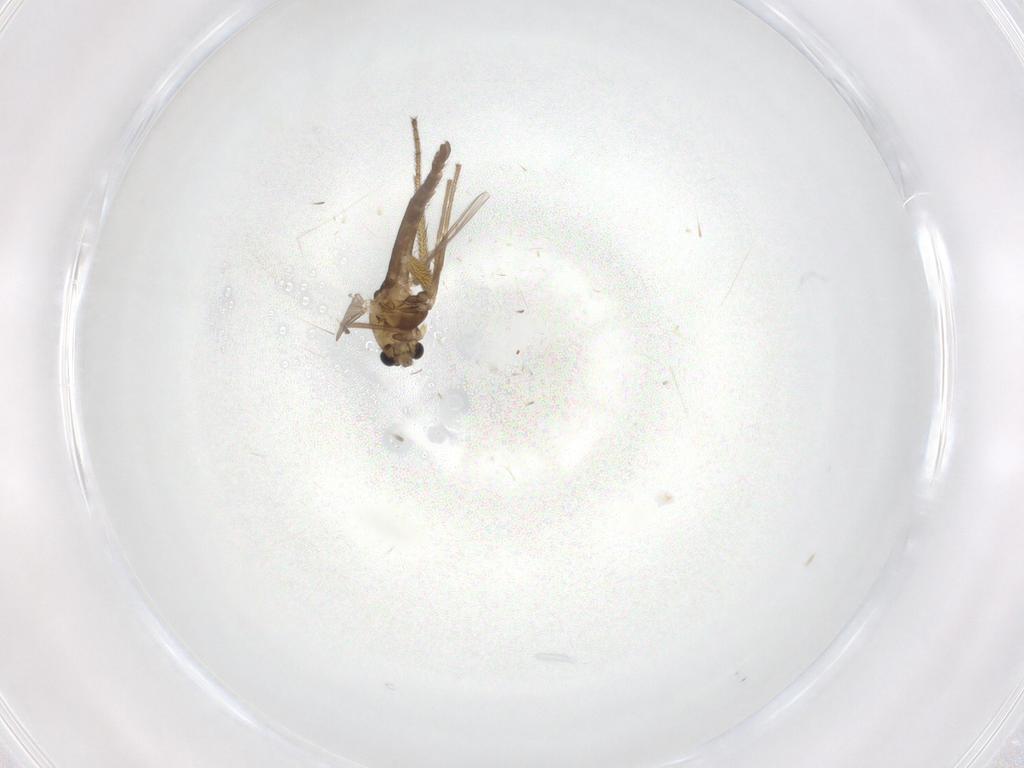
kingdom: Animalia
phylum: Arthropoda
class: Insecta
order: Diptera
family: Chironomidae
